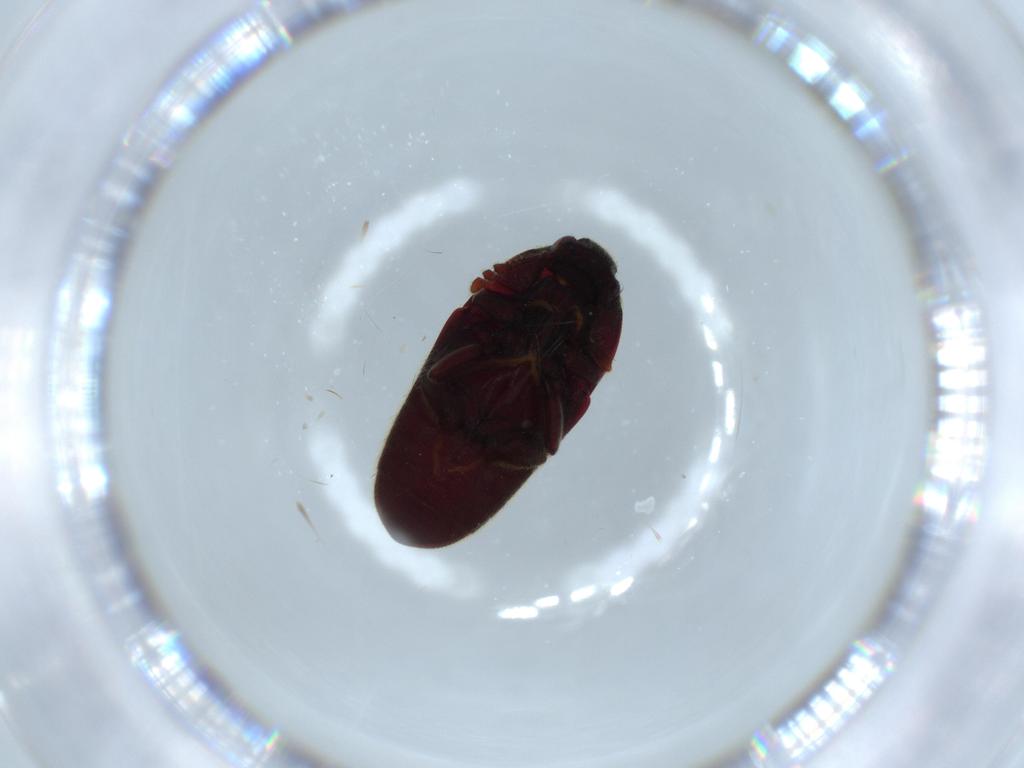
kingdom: Animalia
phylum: Arthropoda
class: Insecta
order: Coleoptera
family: Throscidae
